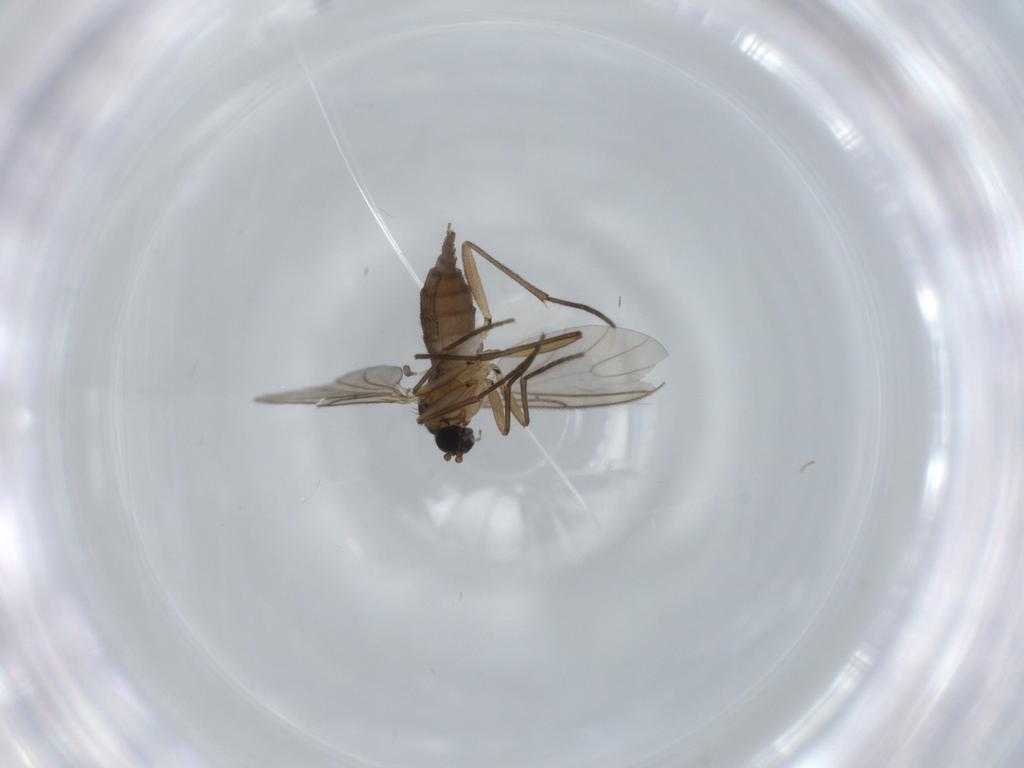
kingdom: Animalia
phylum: Arthropoda
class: Insecta
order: Diptera
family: Sciaridae
